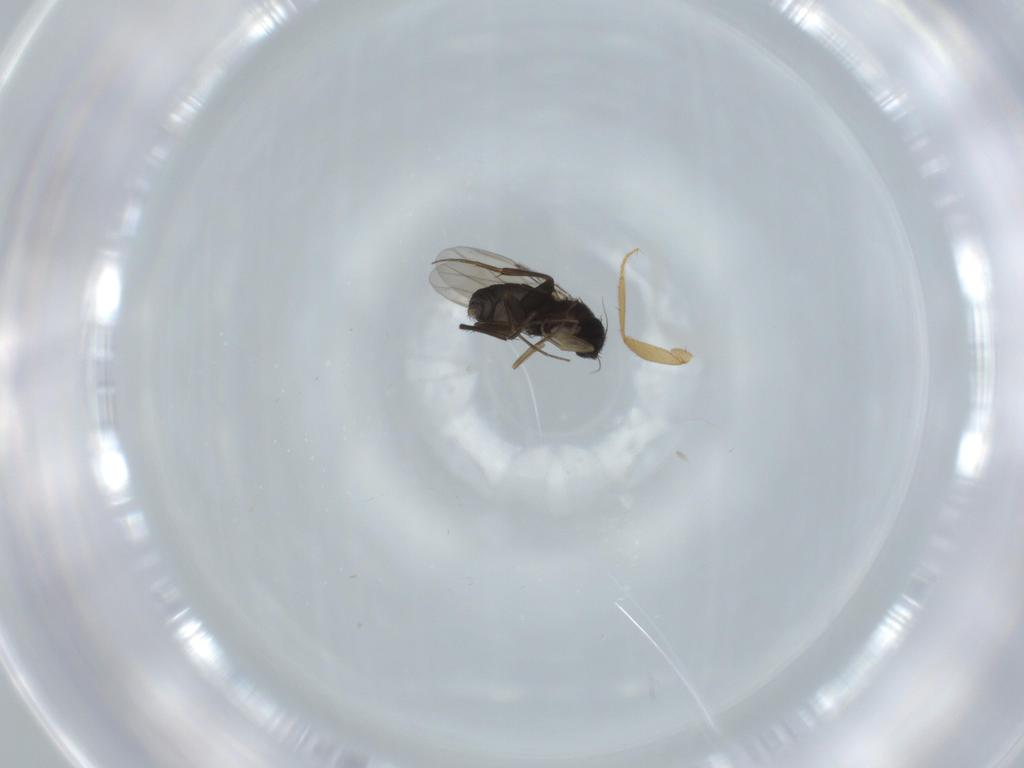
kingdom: Animalia
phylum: Arthropoda
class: Insecta
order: Diptera
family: Phoridae
